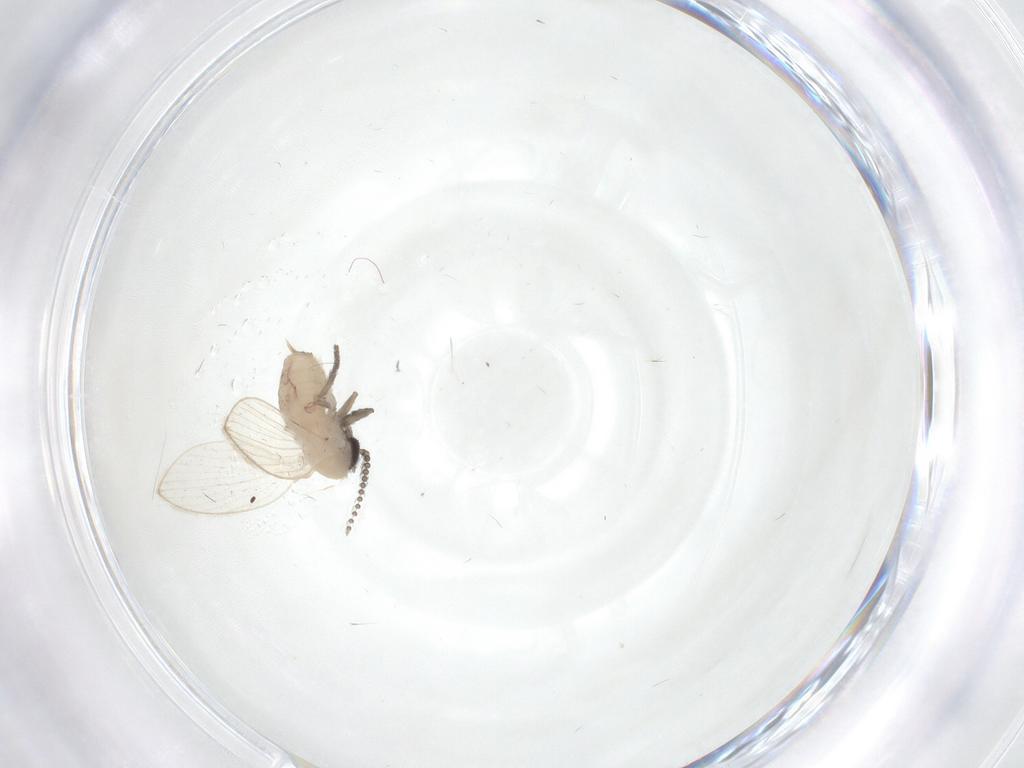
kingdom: Animalia
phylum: Arthropoda
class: Insecta
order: Diptera
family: Psychodidae
